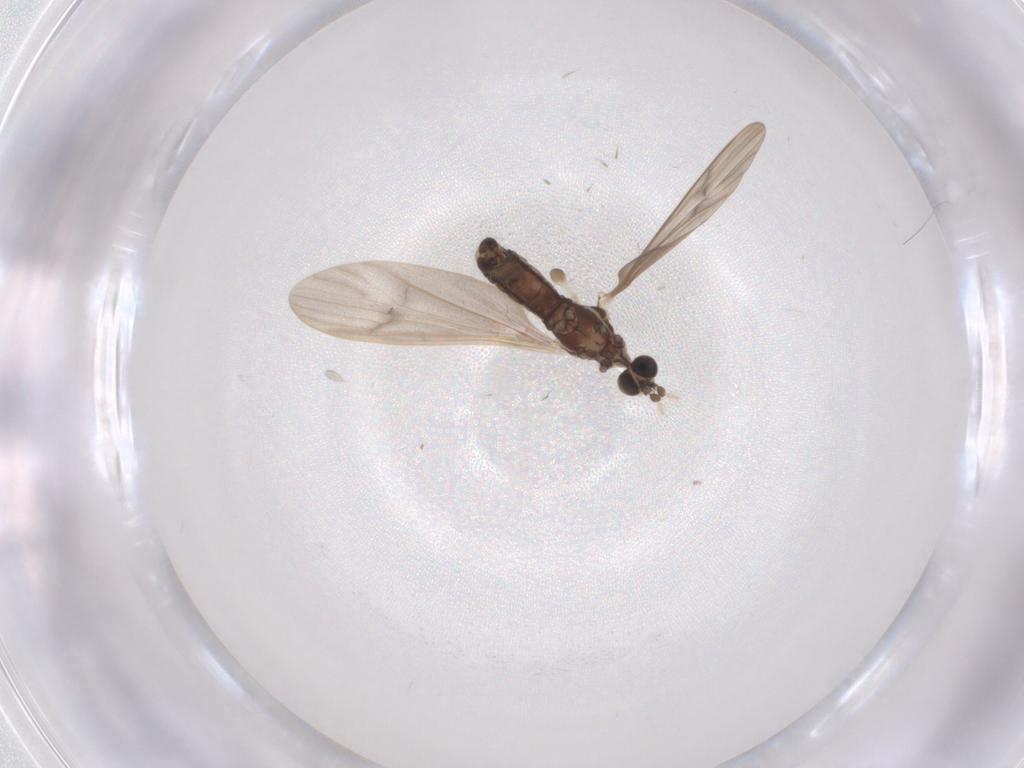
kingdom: Animalia
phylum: Arthropoda
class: Insecta
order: Diptera
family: Limoniidae
